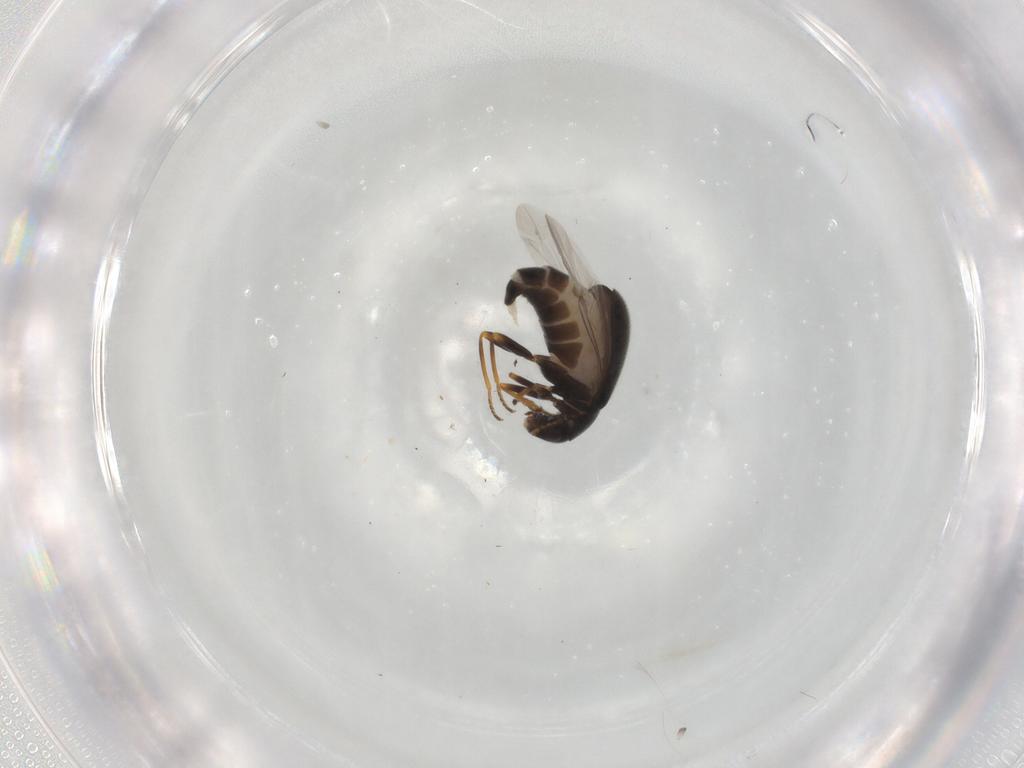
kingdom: Animalia
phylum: Arthropoda
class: Insecta
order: Coleoptera
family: Melyridae
